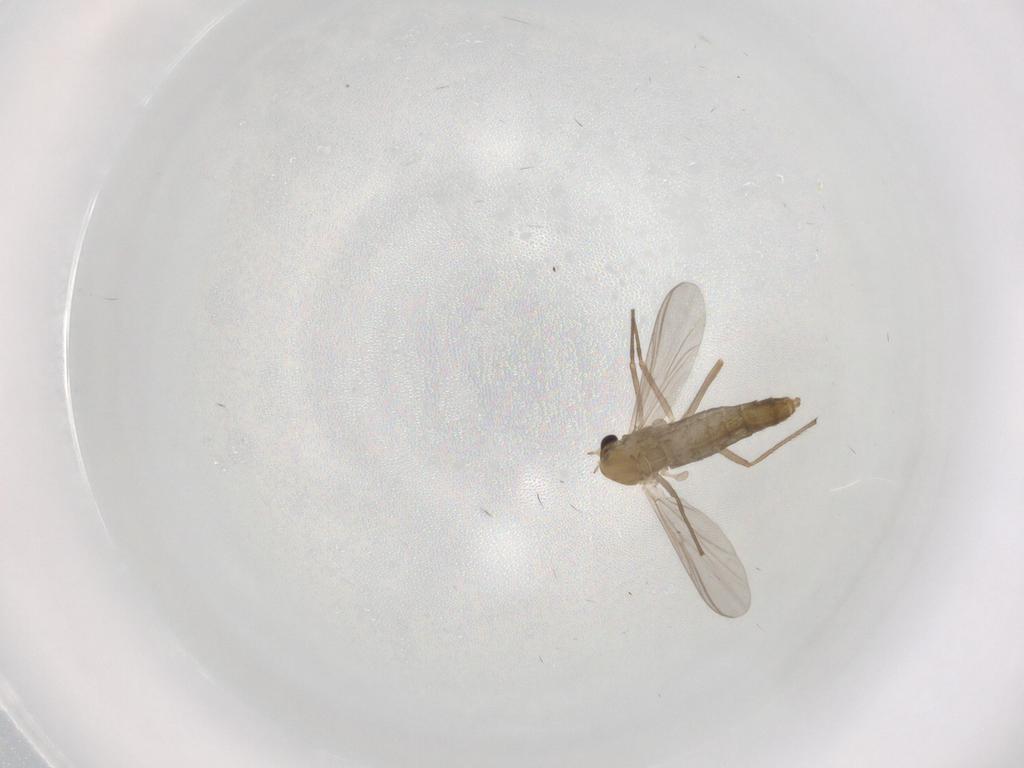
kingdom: Animalia
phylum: Arthropoda
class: Insecta
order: Diptera
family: Chironomidae
